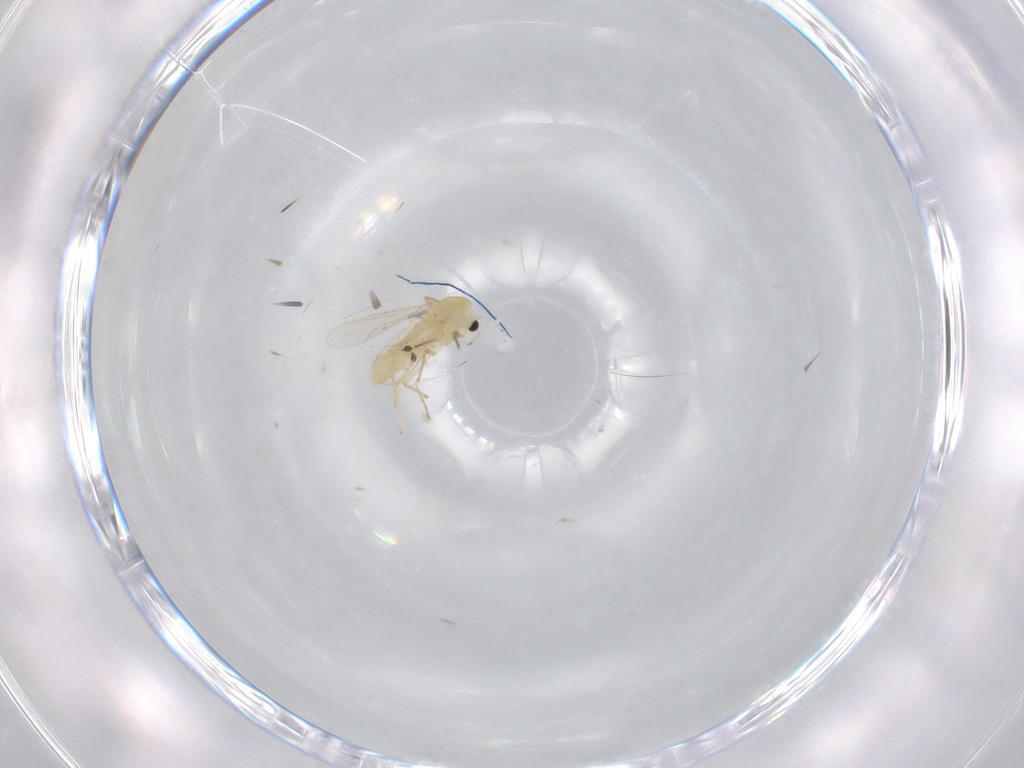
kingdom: Animalia
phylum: Arthropoda
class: Insecta
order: Diptera
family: Chironomidae
